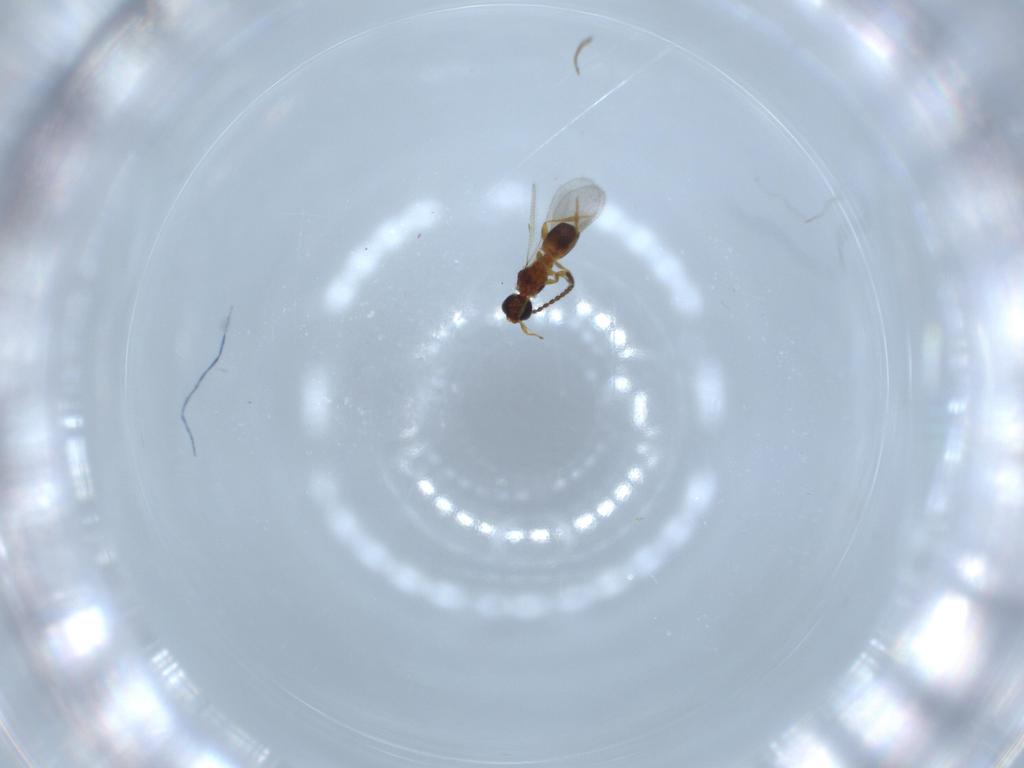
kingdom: Animalia
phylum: Arthropoda
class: Insecta
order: Hymenoptera
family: Diapriidae
